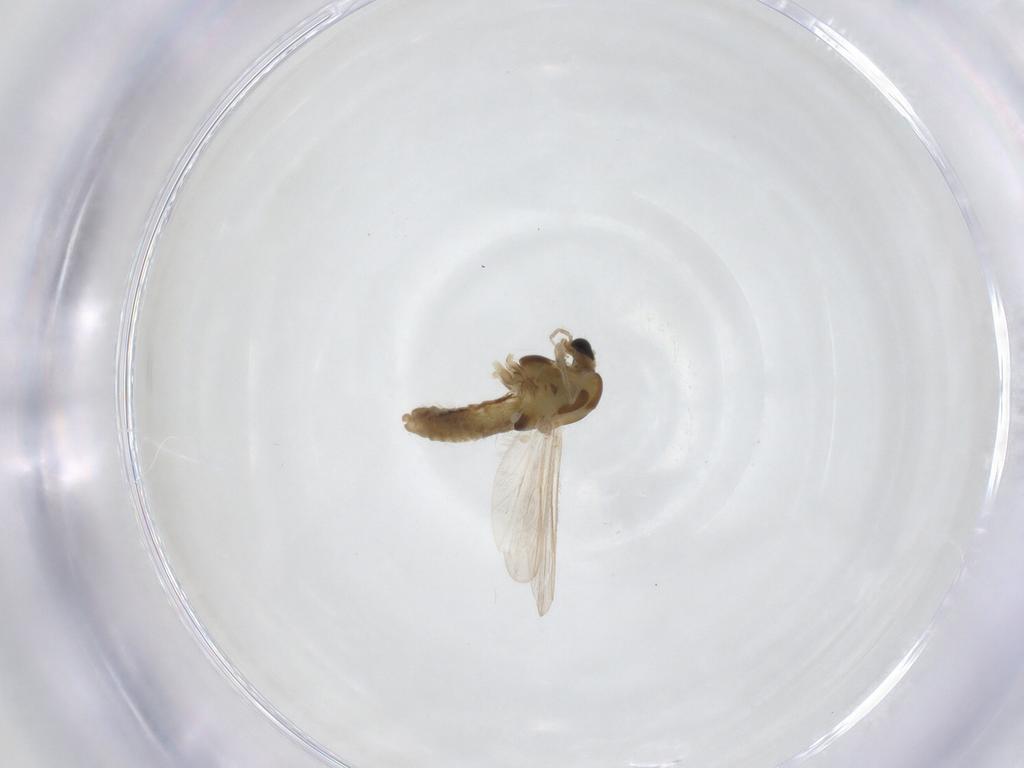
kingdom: Animalia
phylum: Arthropoda
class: Insecta
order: Diptera
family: Chironomidae
